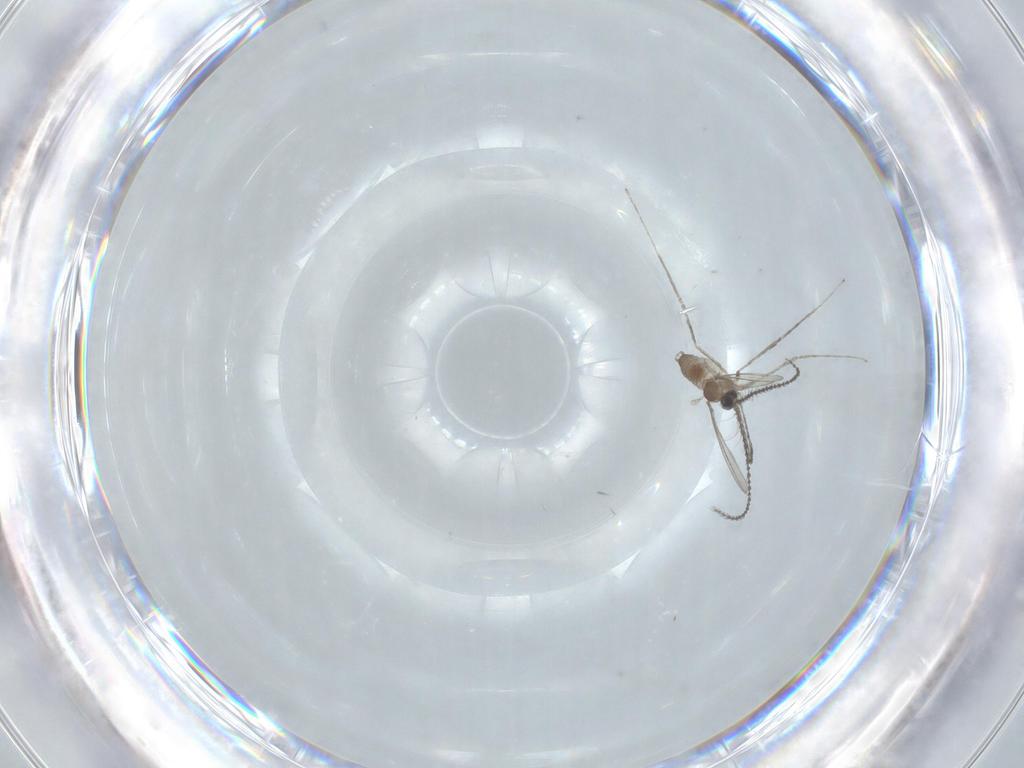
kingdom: Animalia
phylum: Arthropoda
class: Insecta
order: Diptera
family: Cecidomyiidae
